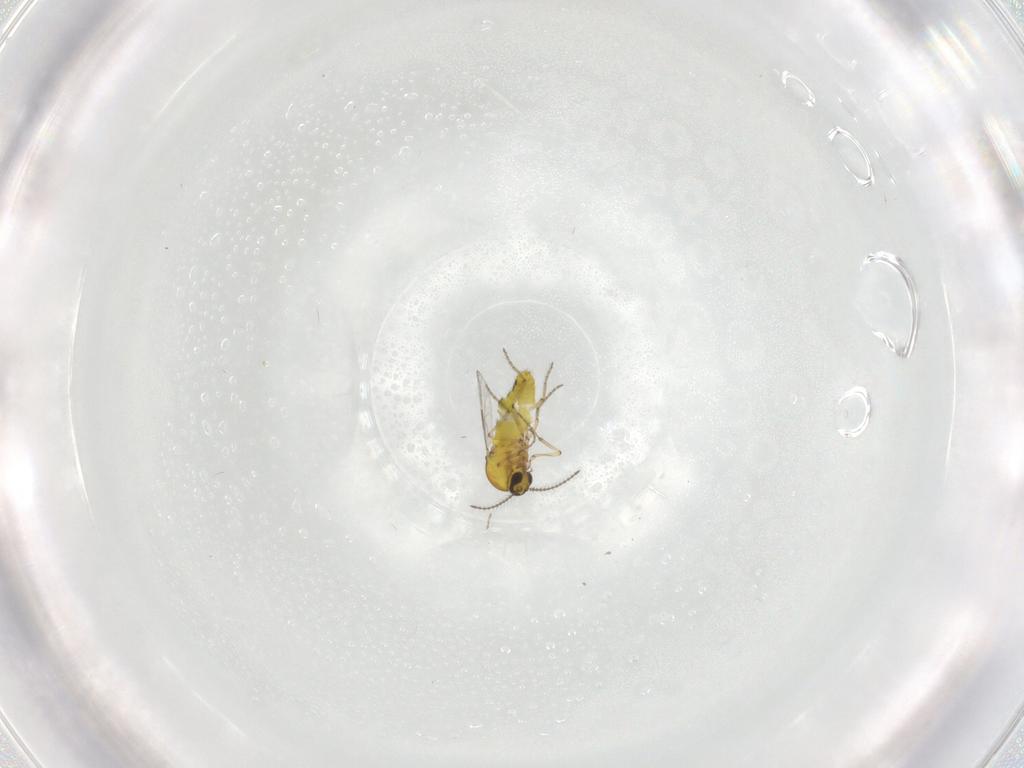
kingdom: Animalia
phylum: Arthropoda
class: Insecta
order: Diptera
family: Ceratopogonidae
